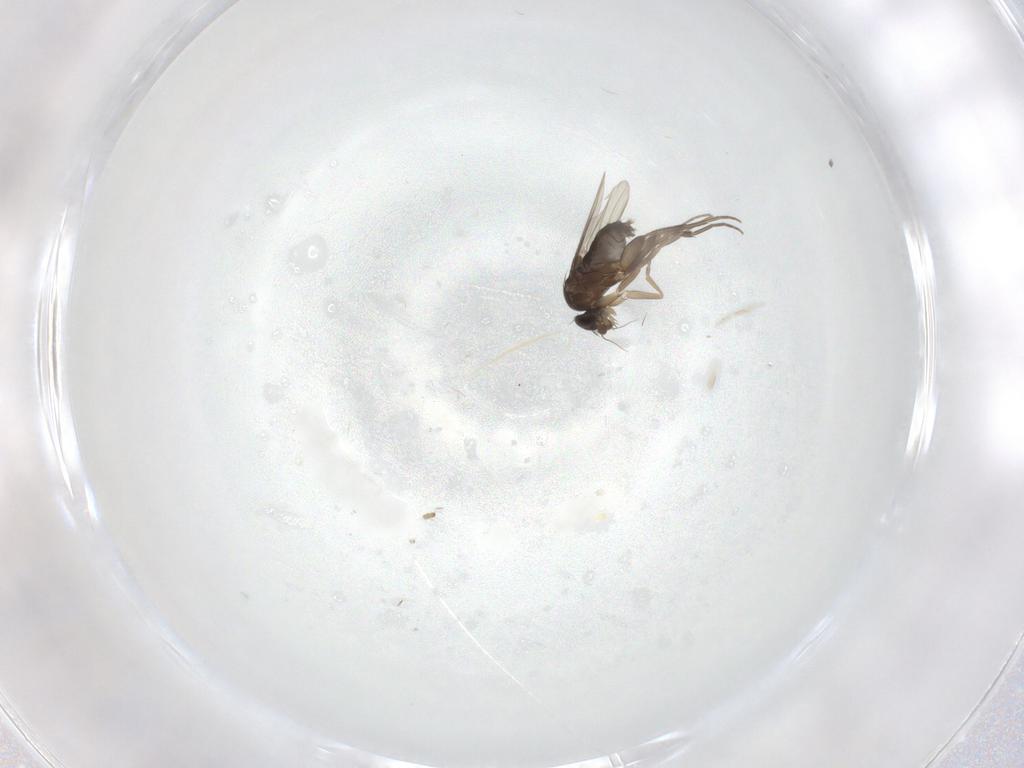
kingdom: Animalia
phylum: Arthropoda
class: Insecta
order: Diptera
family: Phoridae
